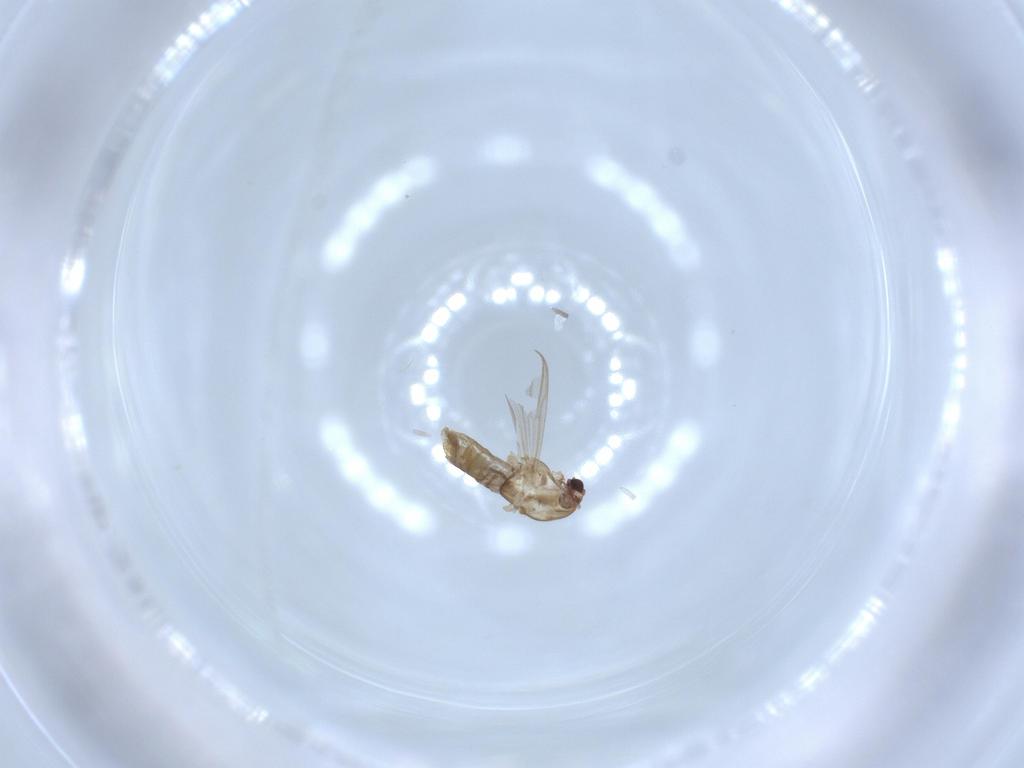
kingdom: Animalia
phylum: Arthropoda
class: Insecta
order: Diptera
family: Chironomidae
